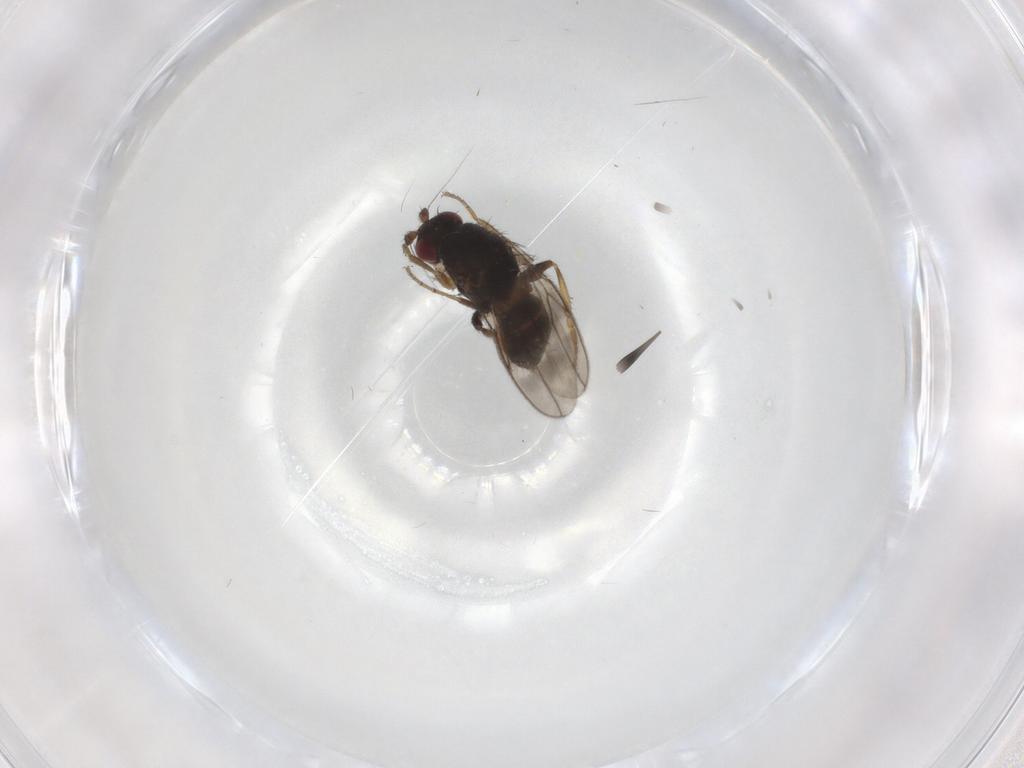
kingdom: Animalia
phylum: Arthropoda
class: Insecta
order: Diptera
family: Sphaeroceridae
